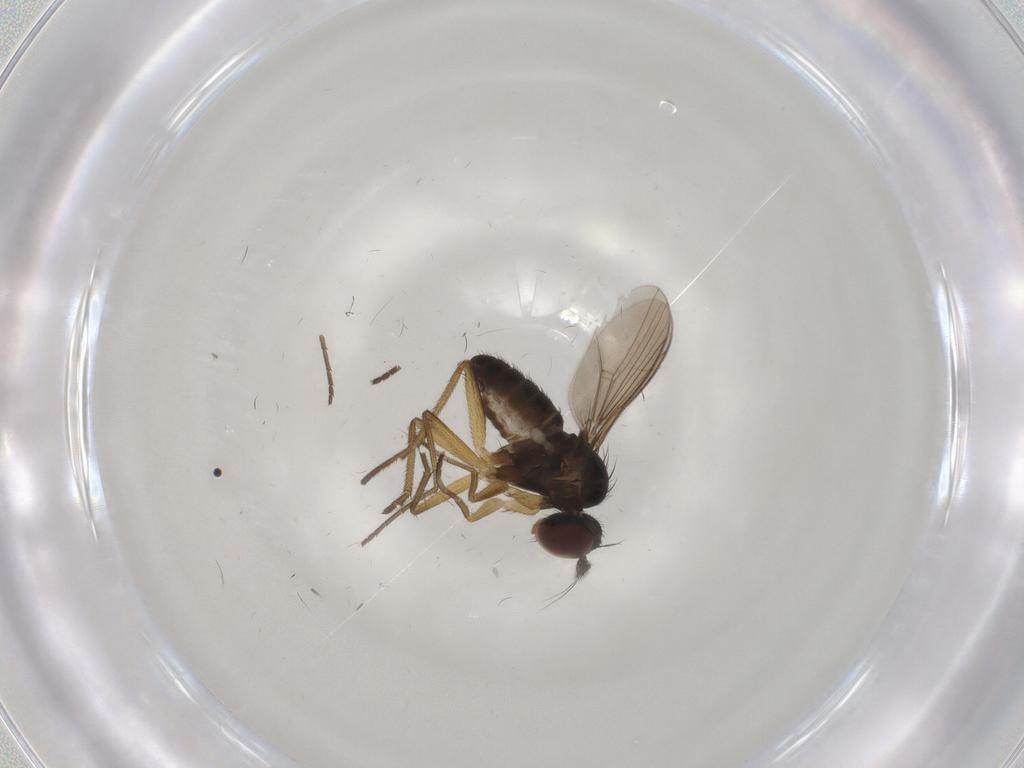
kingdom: Animalia
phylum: Arthropoda
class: Insecta
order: Diptera
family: Dolichopodidae
